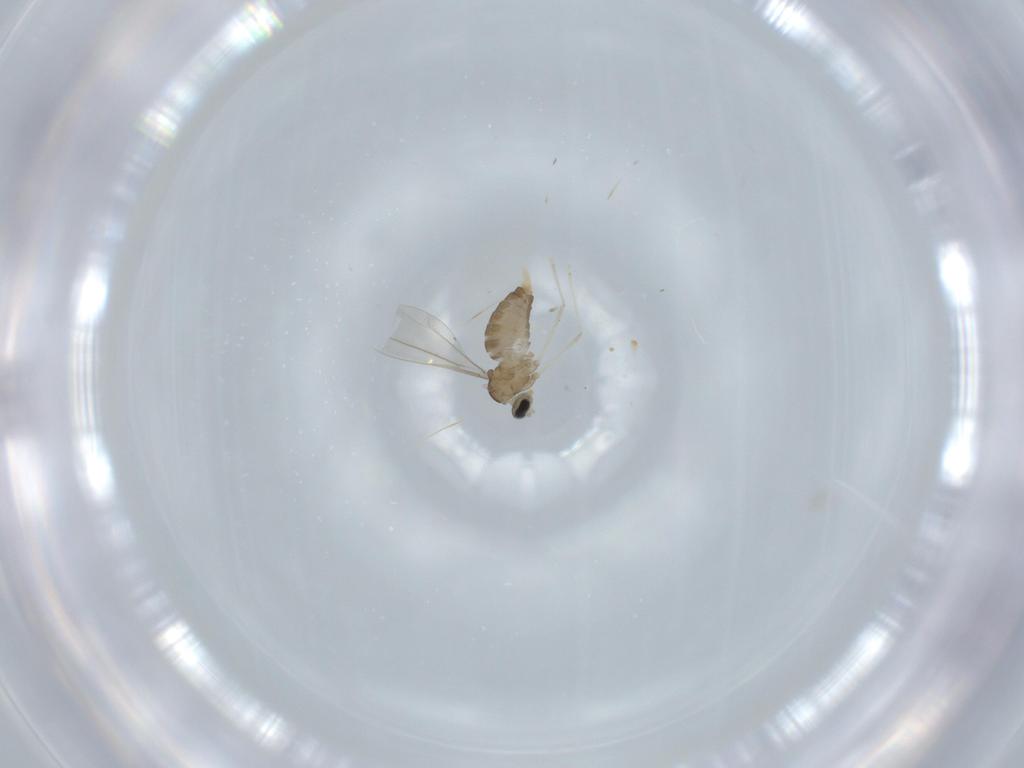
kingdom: Animalia
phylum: Arthropoda
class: Insecta
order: Diptera
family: Cecidomyiidae
